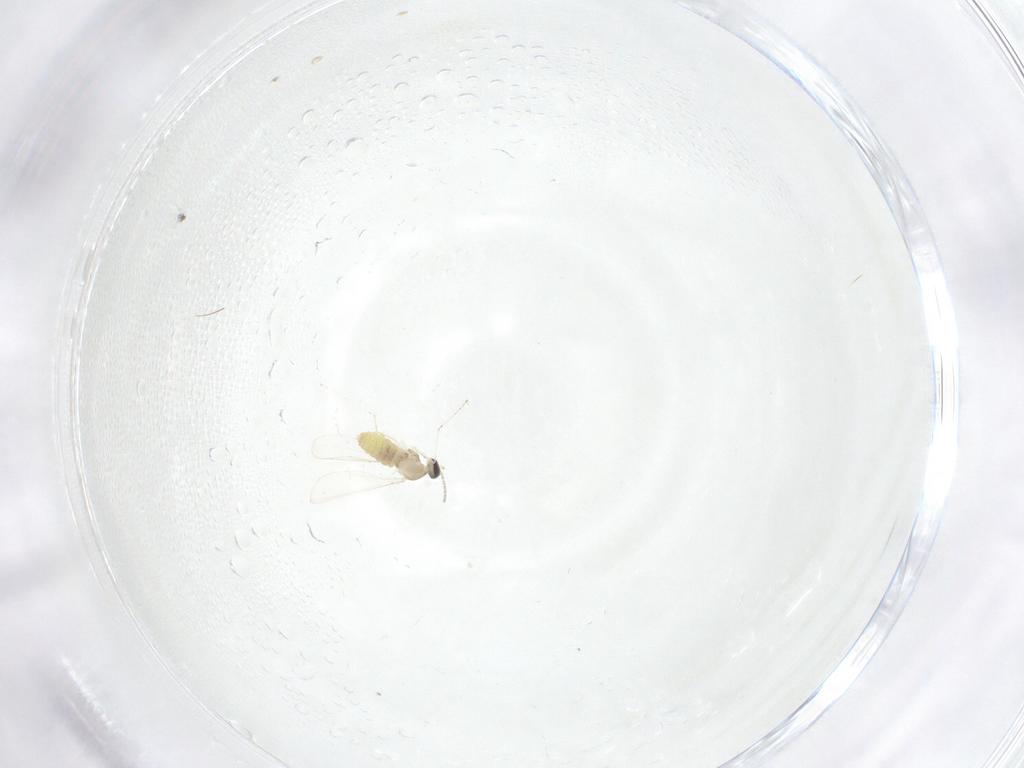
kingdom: Animalia
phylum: Arthropoda
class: Insecta
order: Diptera
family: Cecidomyiidae
